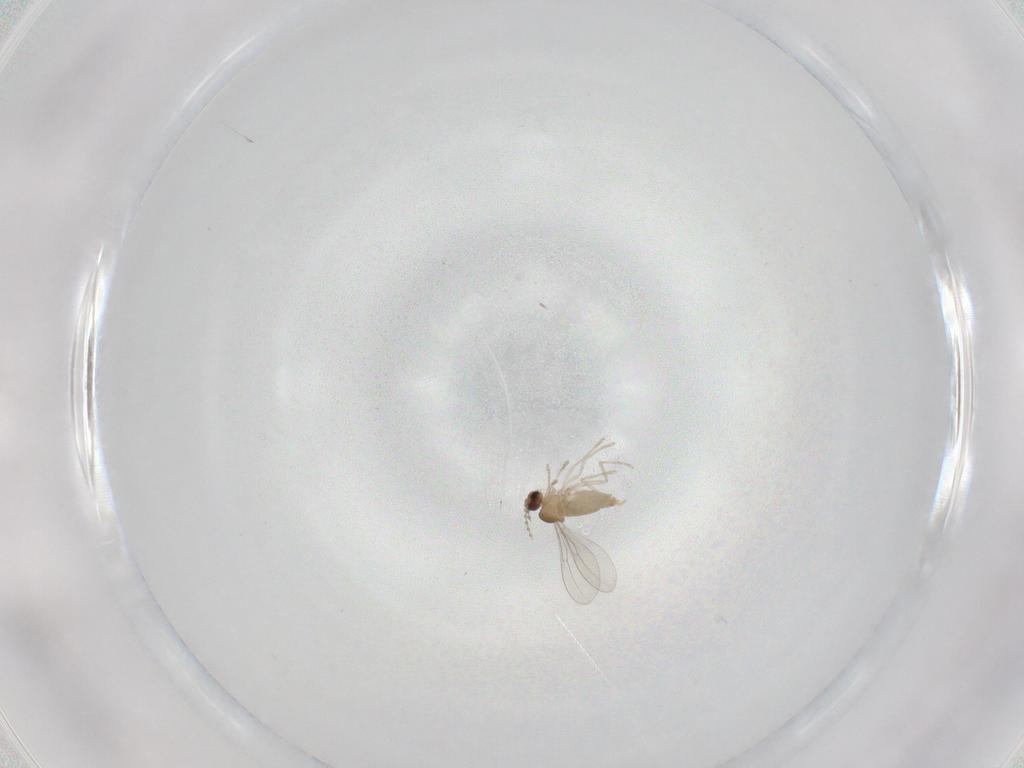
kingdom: Animalia
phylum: Arthropoda
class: Insecta
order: Diptera
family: Cecidomyiidae
